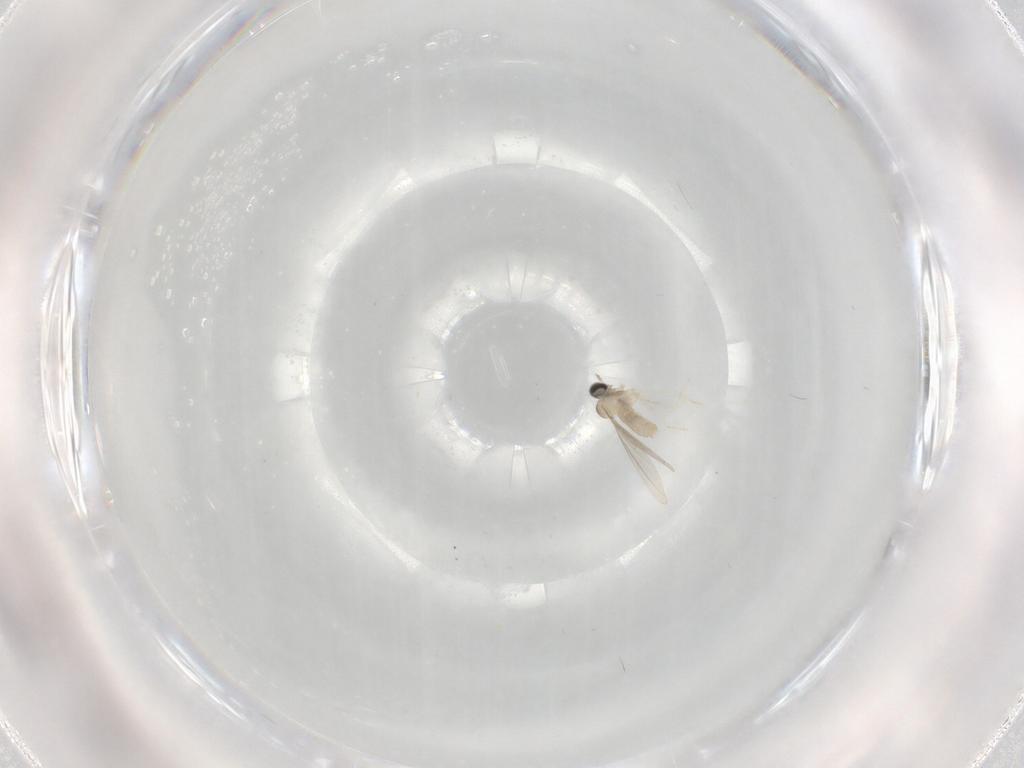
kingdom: Animalia
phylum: Arthropoda
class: Insecta
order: Diptera
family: Cecidomyiidae
